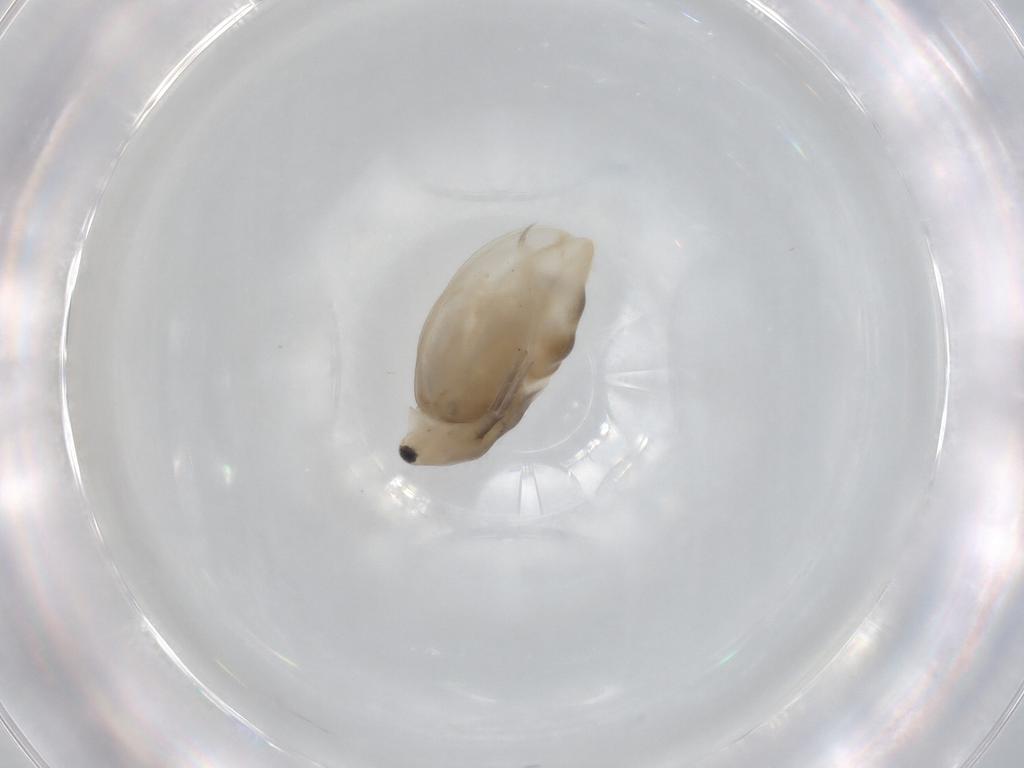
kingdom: Animalia
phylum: Arthropoda
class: Branchiopoda
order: Diplostraca
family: Daphniidae
